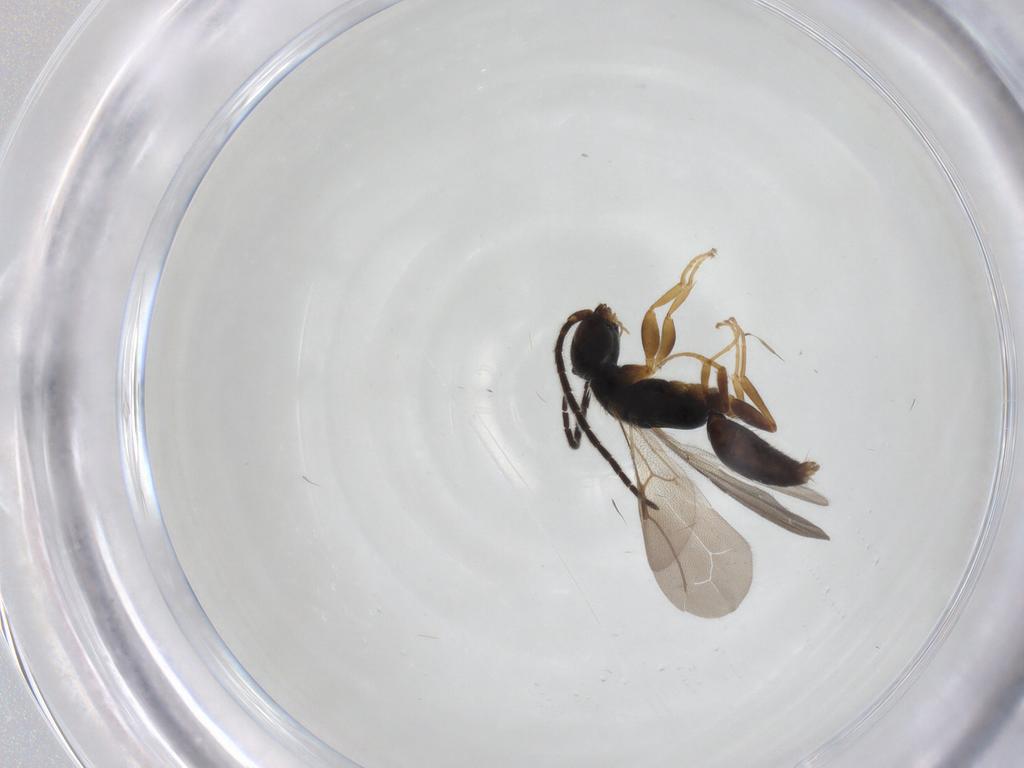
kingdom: Animalia
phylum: Arthropoda
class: Insecta
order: Hymenoptera
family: Bethylidae
